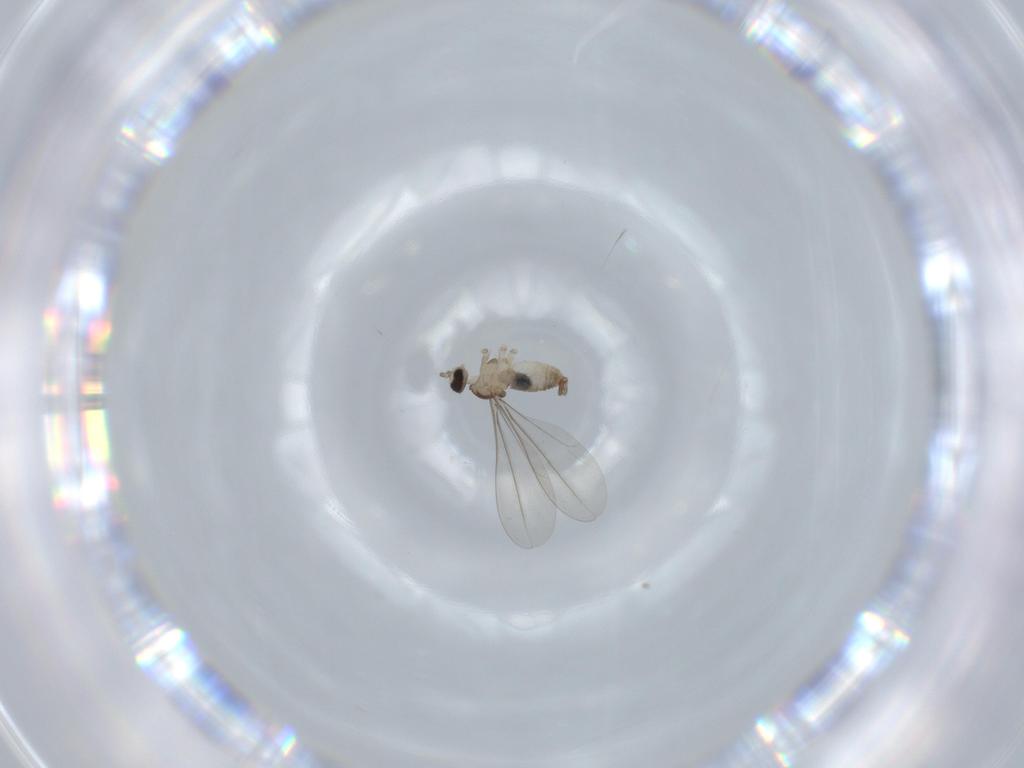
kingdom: Animalia
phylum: Arthropoda
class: Insecta
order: Diptera
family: Cecidomyiidae
